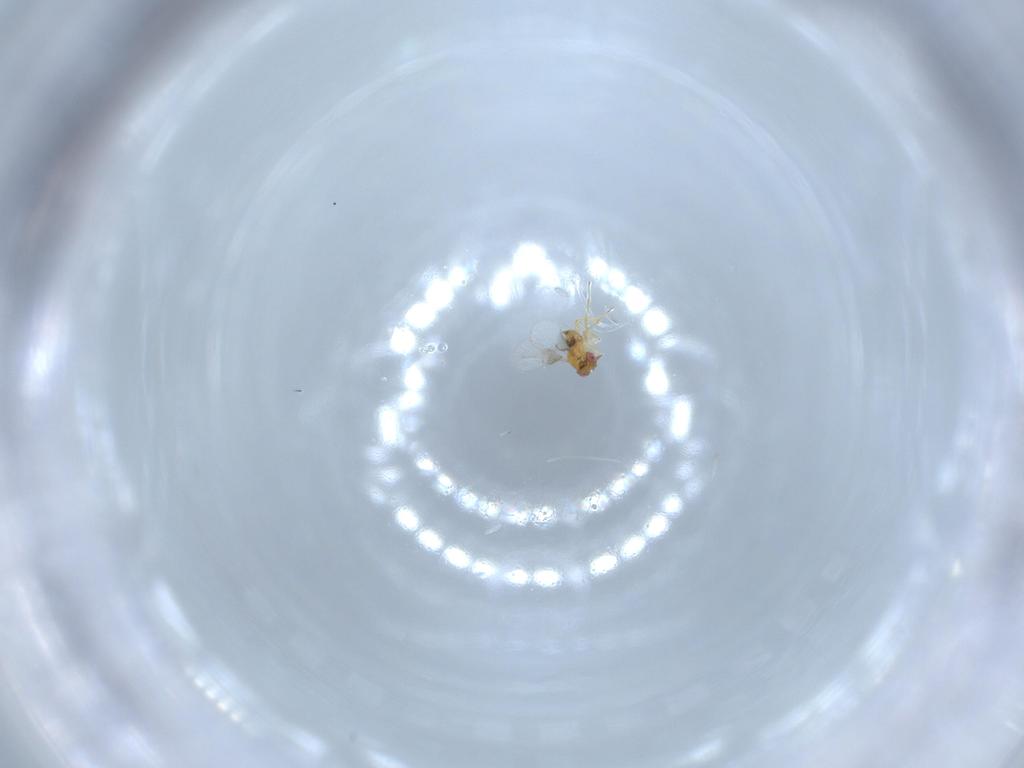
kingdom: Animalia
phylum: Arthropoda
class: Insecta
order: Hymenoptera
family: Trichogrammatidae
